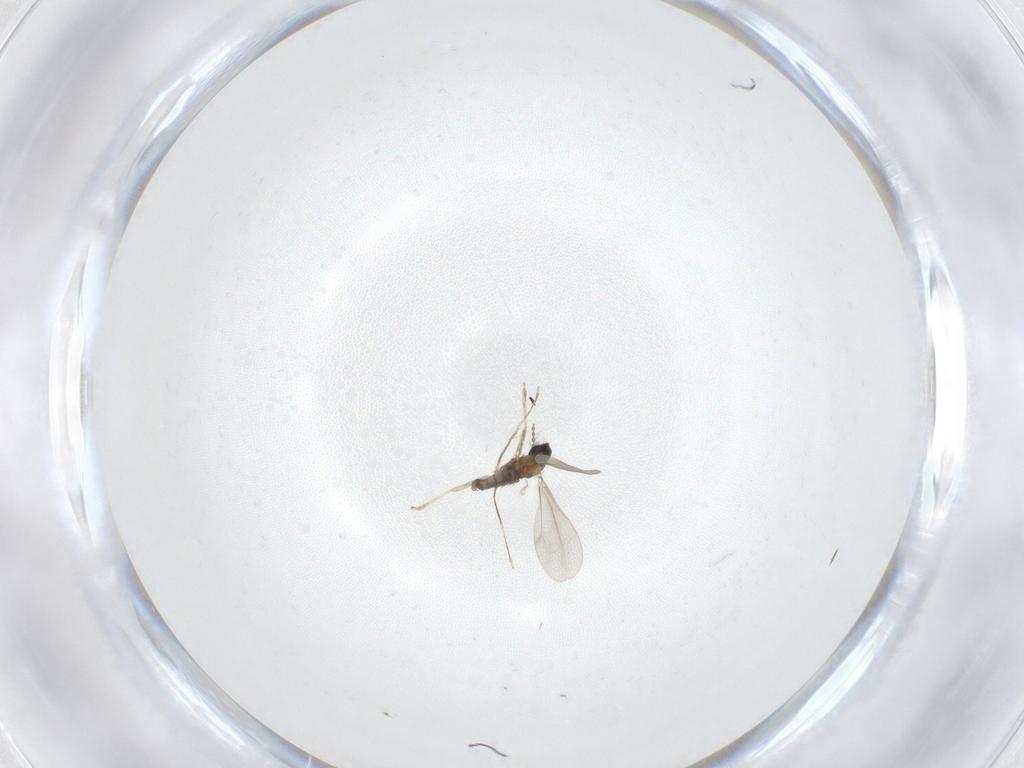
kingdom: Animalia
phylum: Arthropoda
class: Insecta
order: Diptera
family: Cecidomyiidae
